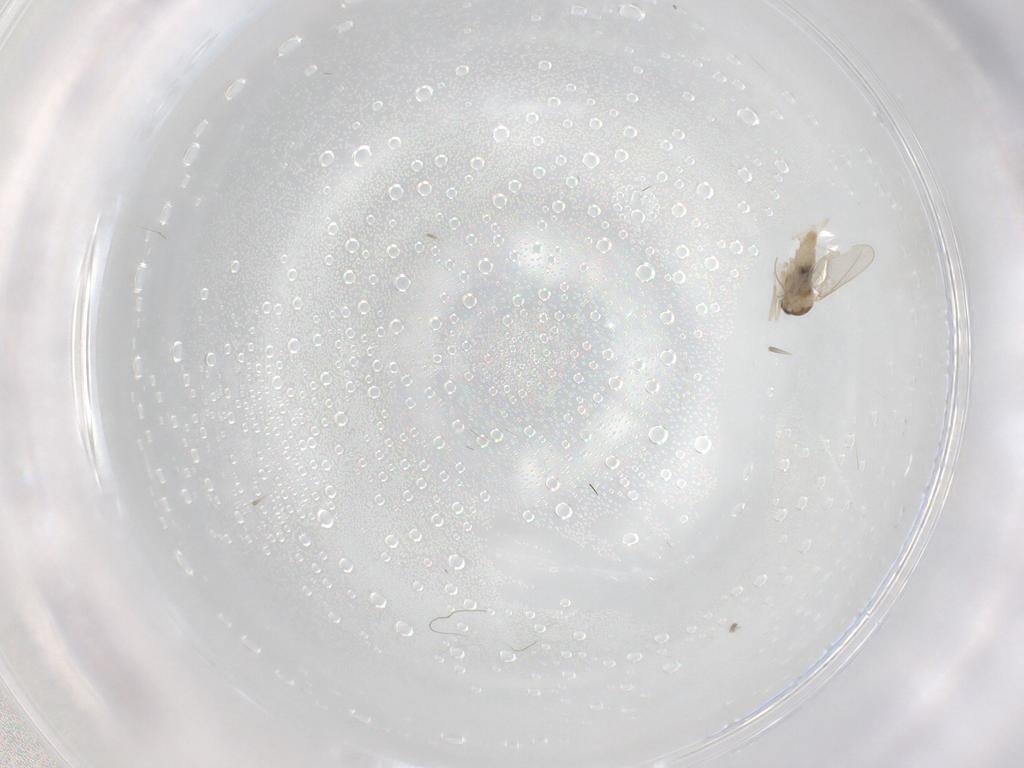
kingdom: Animalia
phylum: Arthropoda
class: Insecta
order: Diptera
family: Cecidomyiidae
